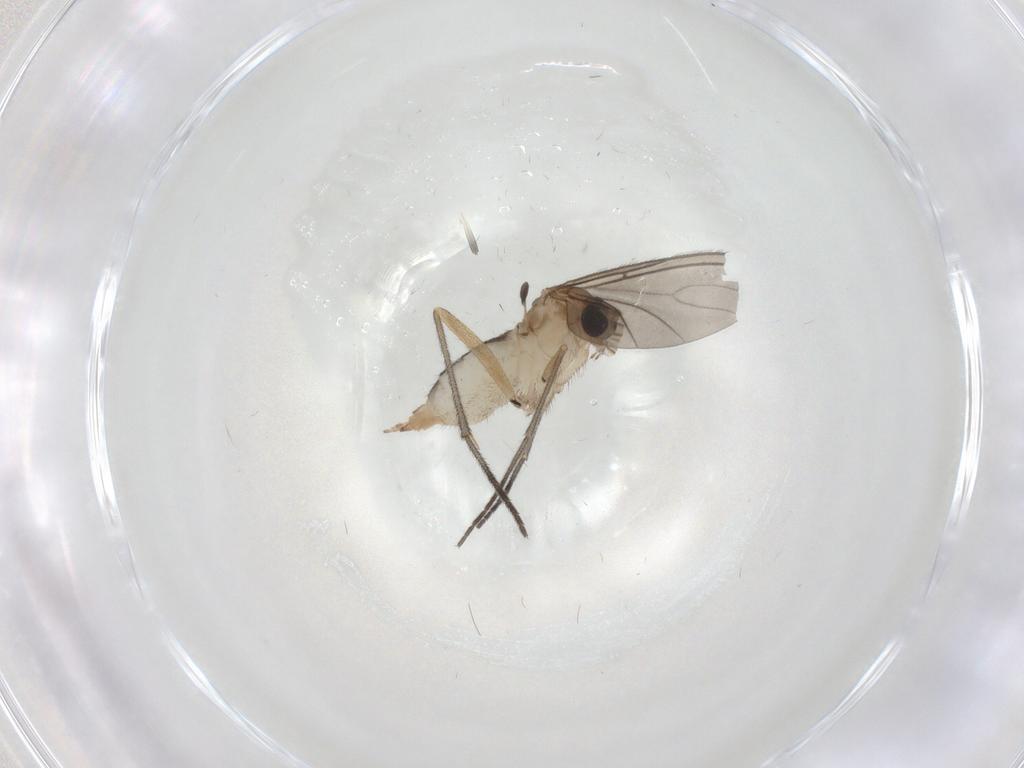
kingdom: Animalia
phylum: Arthropoda
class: Insecta
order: Diptera
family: Sciaridae
